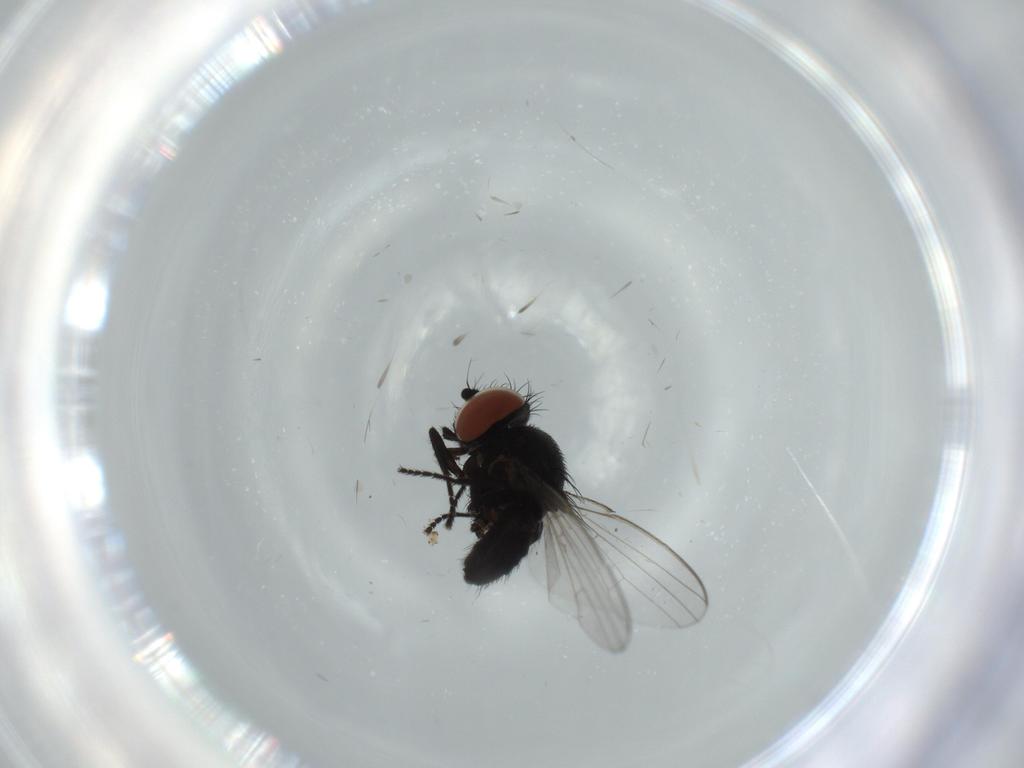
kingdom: Animalia
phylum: Arthropoda
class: Insecta
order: Diptera
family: Milichiidae
